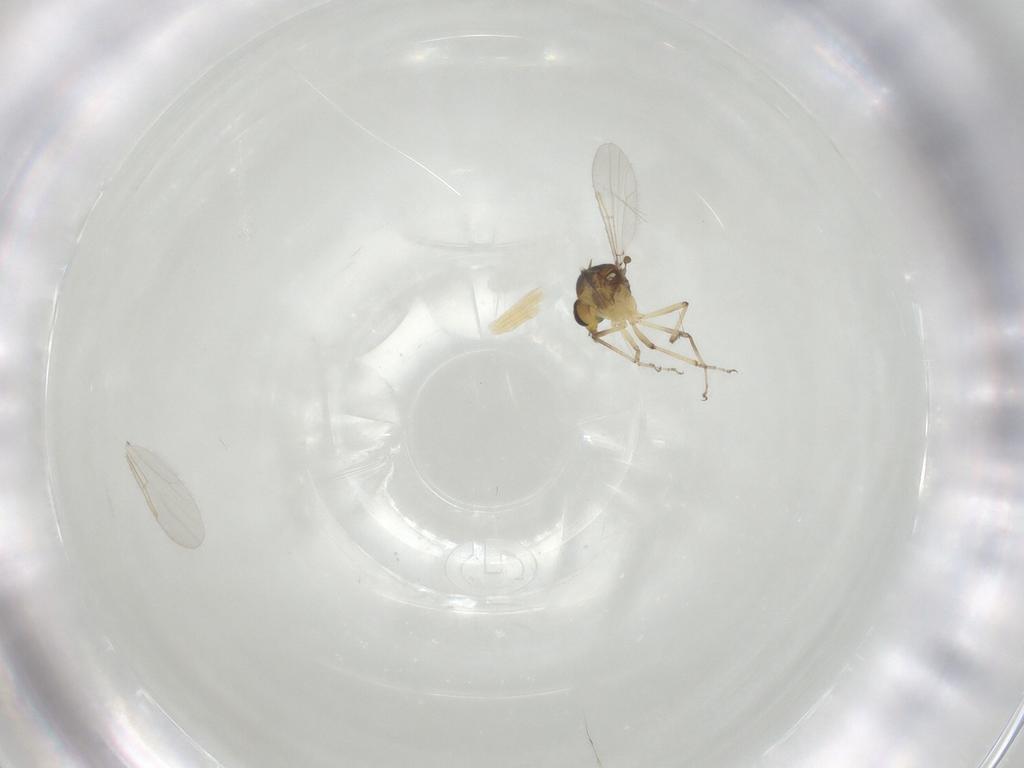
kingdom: Animalia
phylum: Arthropoda
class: Insecta
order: Diptera
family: Ceratopogonidae
